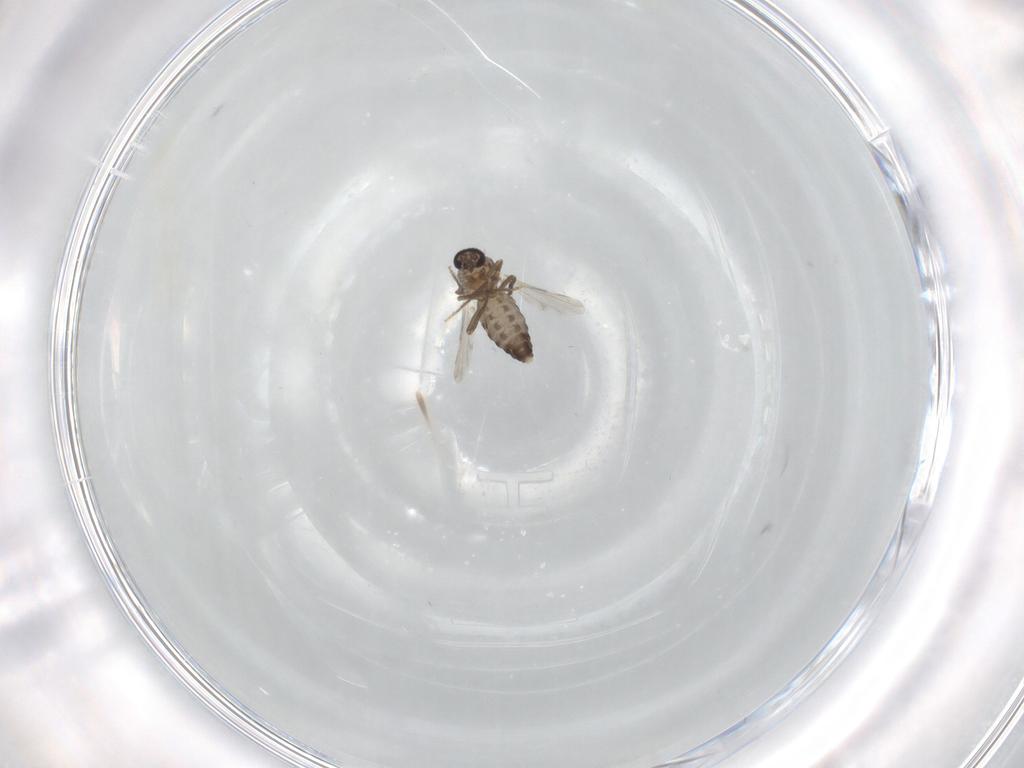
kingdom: Animalia
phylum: Arthropoda
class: Insecta
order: Diptera
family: Ceratopogonidae
